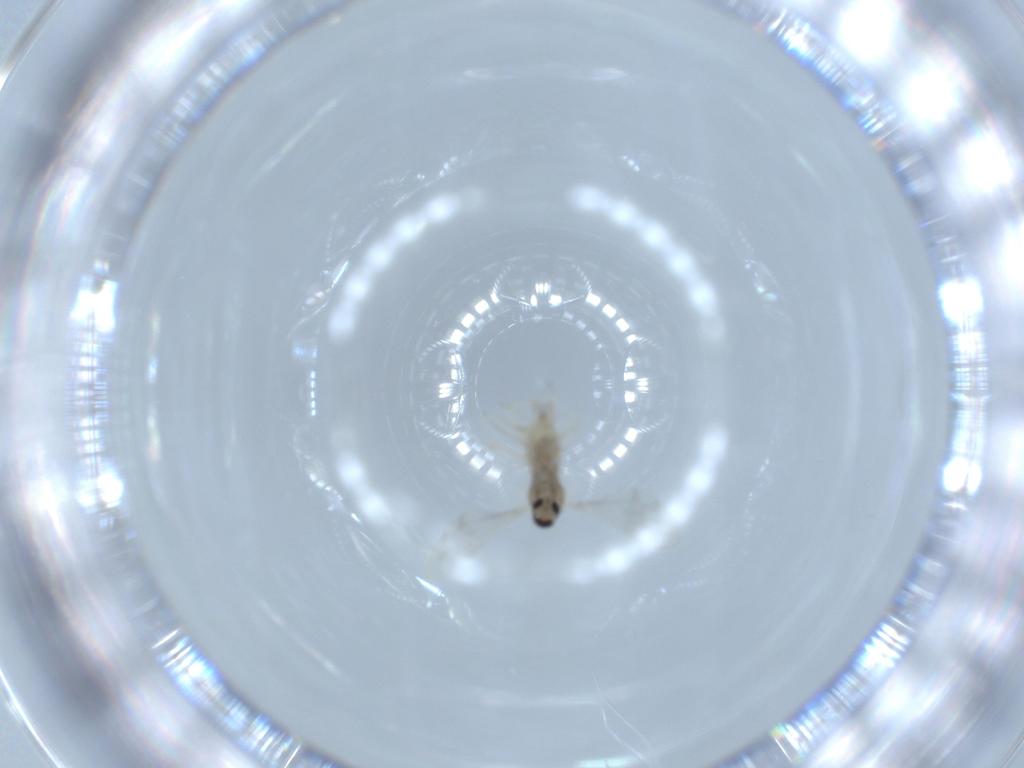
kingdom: Animalia
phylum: Arthropoda
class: Insecta
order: Diptera
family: Cecidomyiidae
